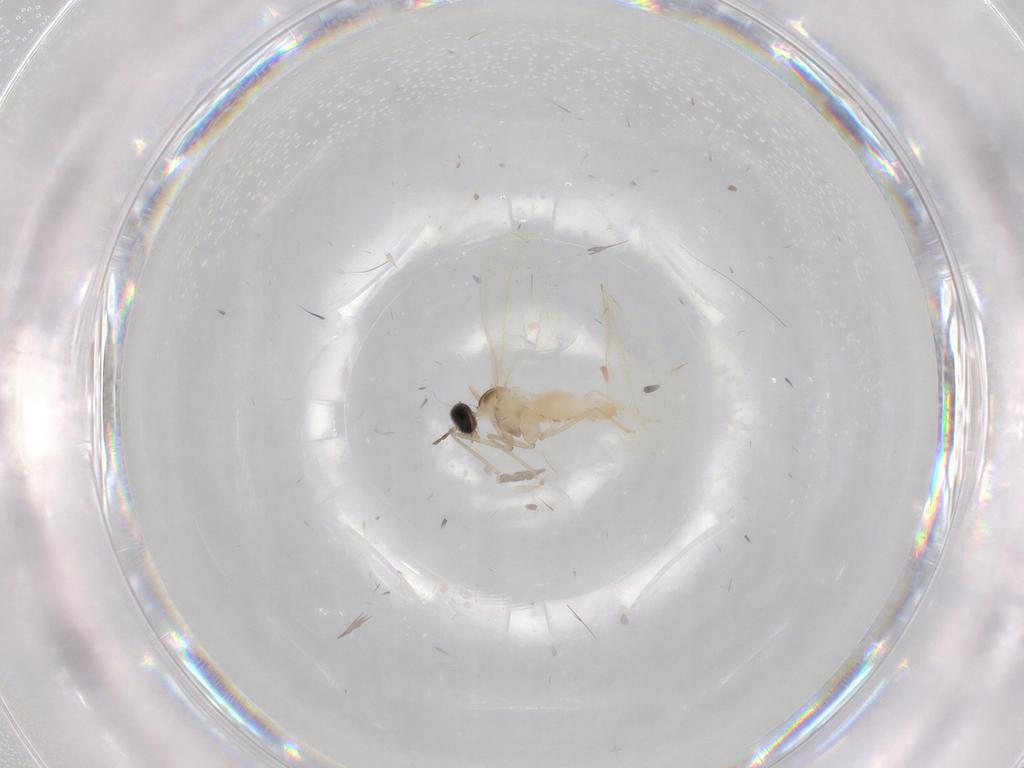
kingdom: Animalia
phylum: Arthropoda
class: Insecta
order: Diptera
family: Cecidomyiidae
